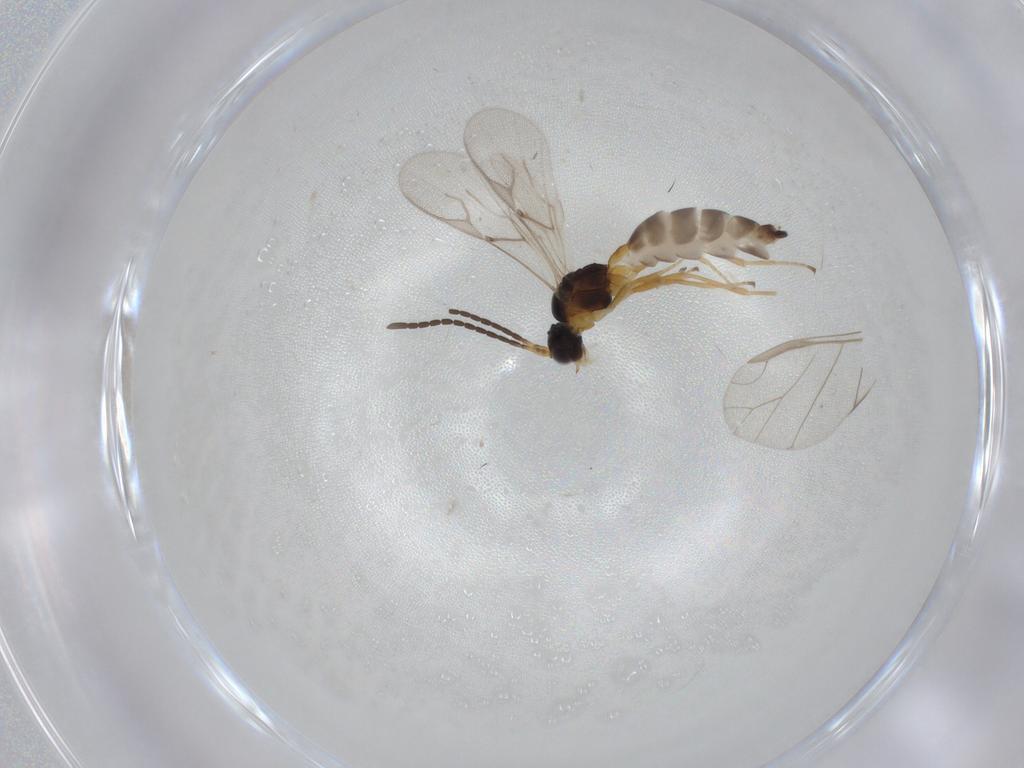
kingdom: Animalia
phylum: Arthropoda
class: Insecta
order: Hymenoptera
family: Braconidae
